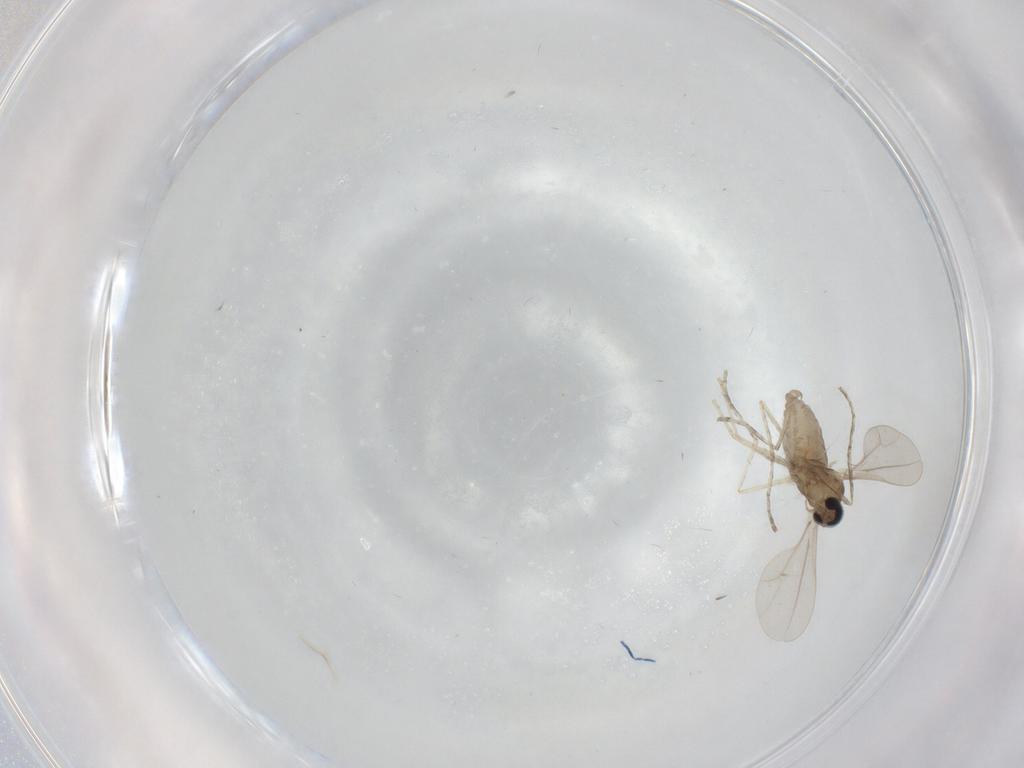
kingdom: Animalia
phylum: Arthropoda
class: Insecta
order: Diptera
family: Cecidomyiidae
